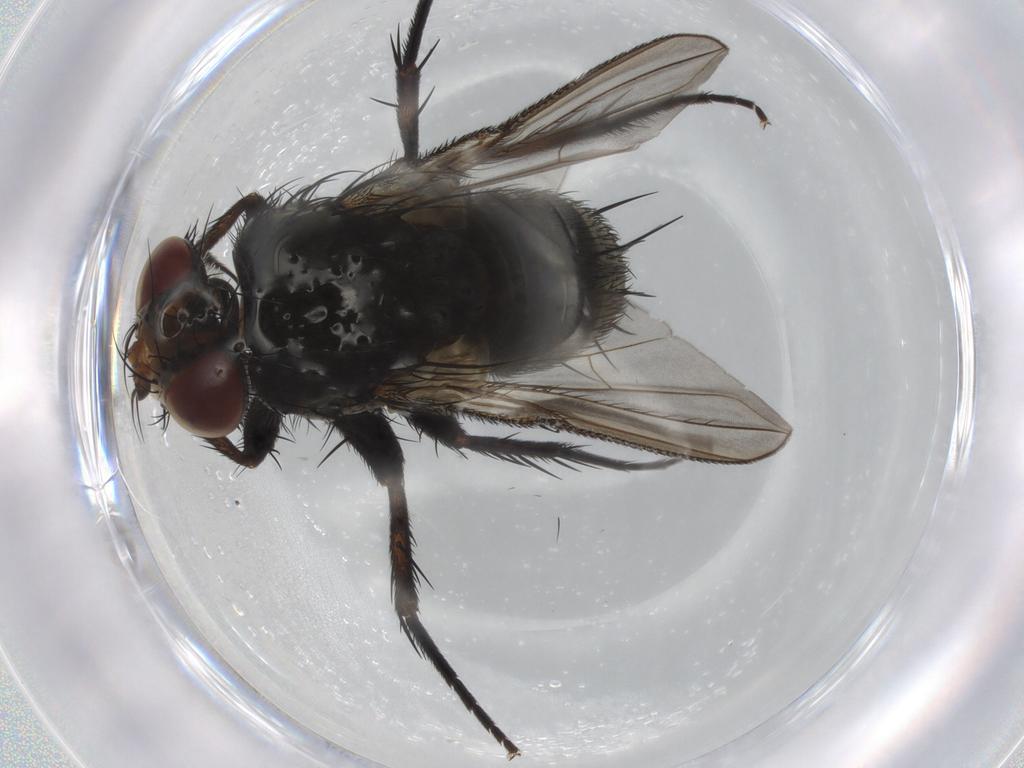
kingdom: Animalia
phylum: Arthropoda
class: Insecta
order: Diptera
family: Tachinidae
